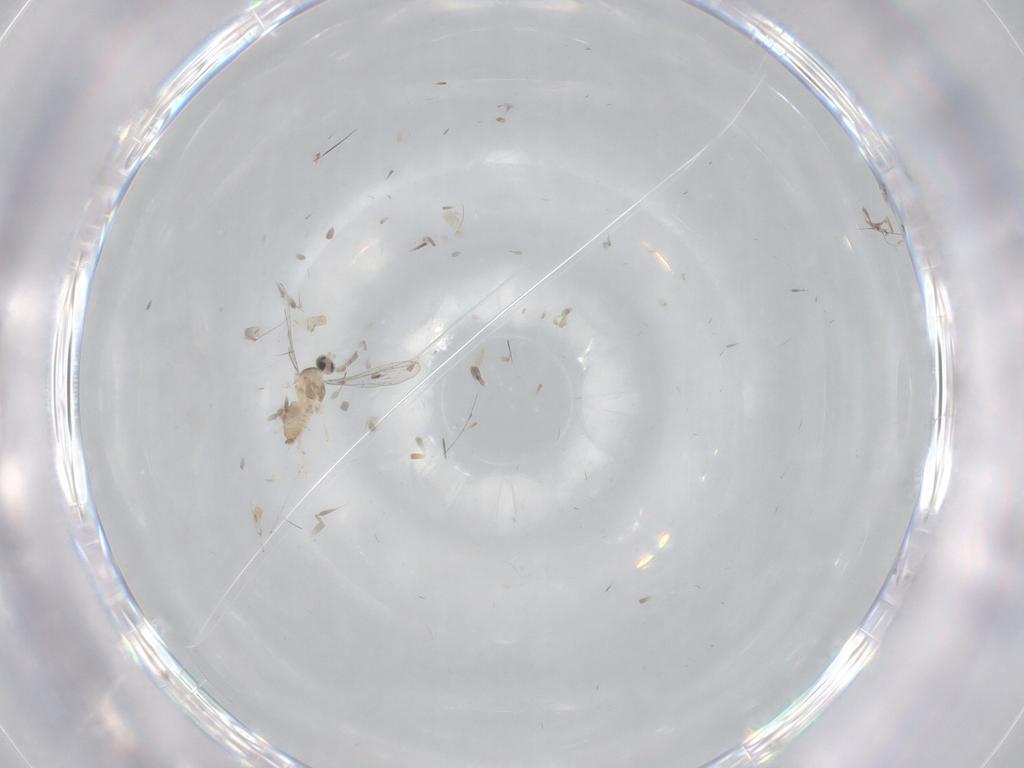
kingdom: Animalia
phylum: Arthropoda
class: Insecta
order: Diptera
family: Cecidomyiidae
